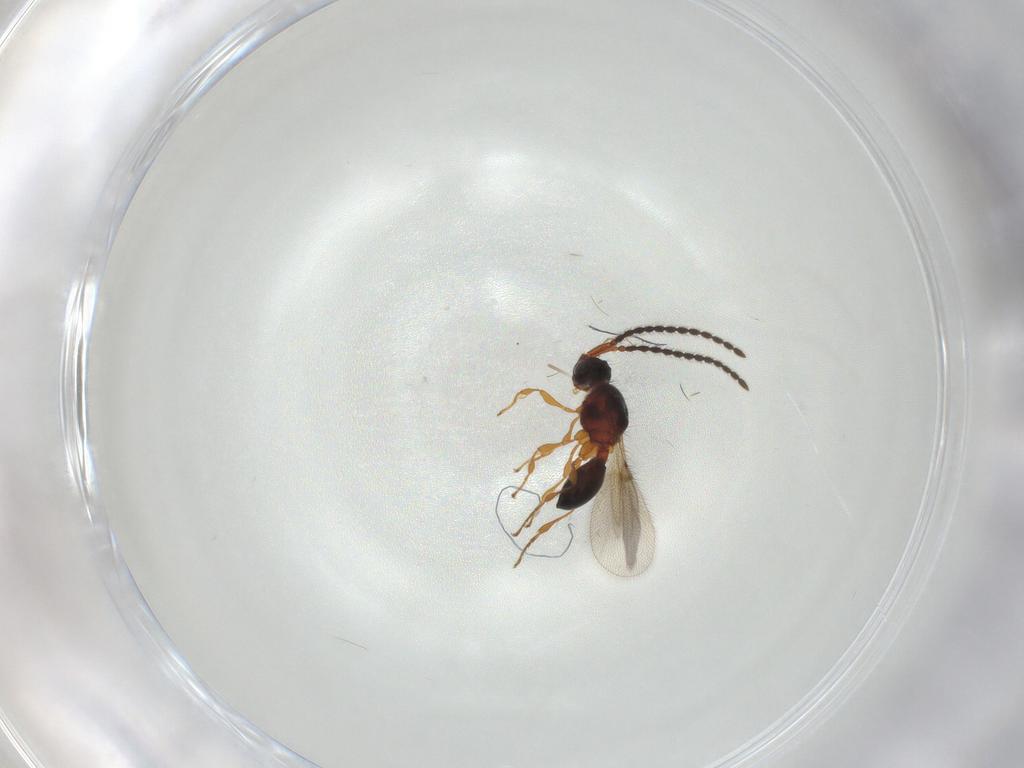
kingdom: Animalia
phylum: Arthropoda
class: Insecta
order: Hymenoptera
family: Diapriidae
